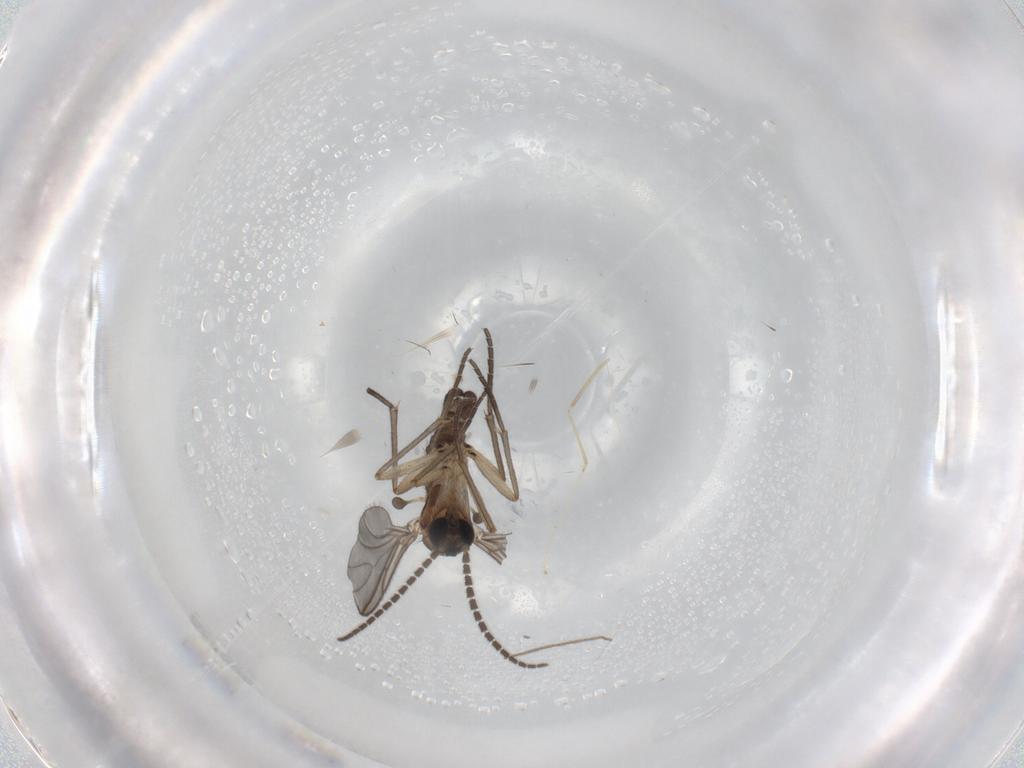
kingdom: Animalia
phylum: Arthropoda
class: Insecta
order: Diptera
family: Sciaridae
